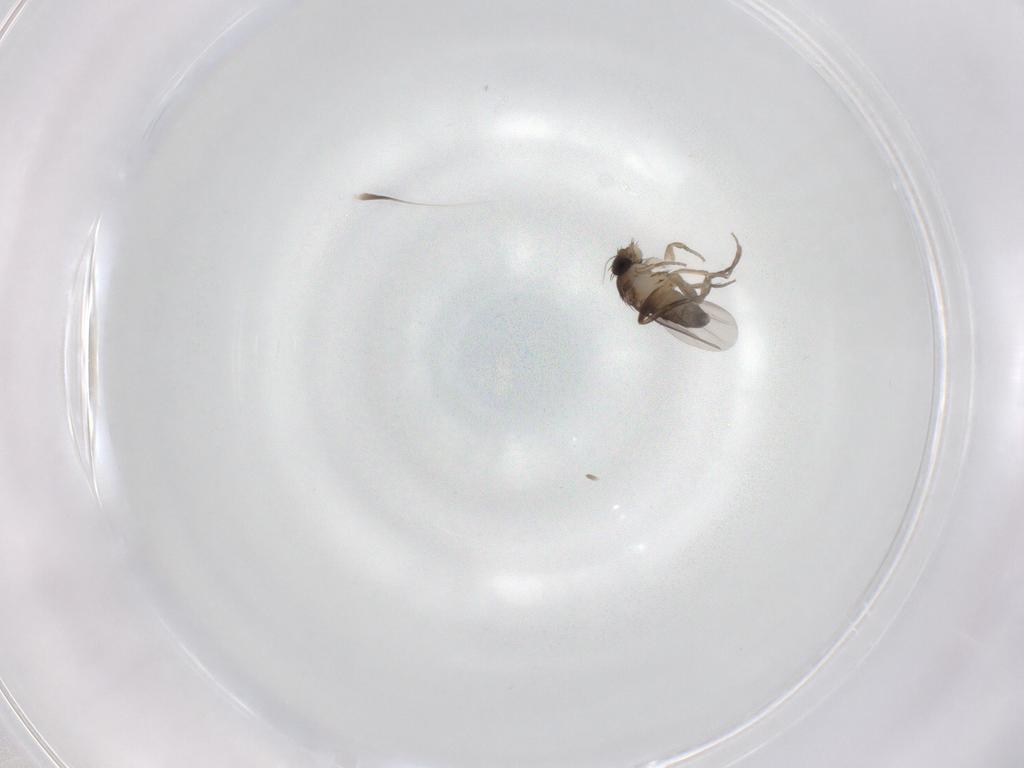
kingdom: Animalia
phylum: Arthropoda
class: Insecta
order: Diptera
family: Phoridae
